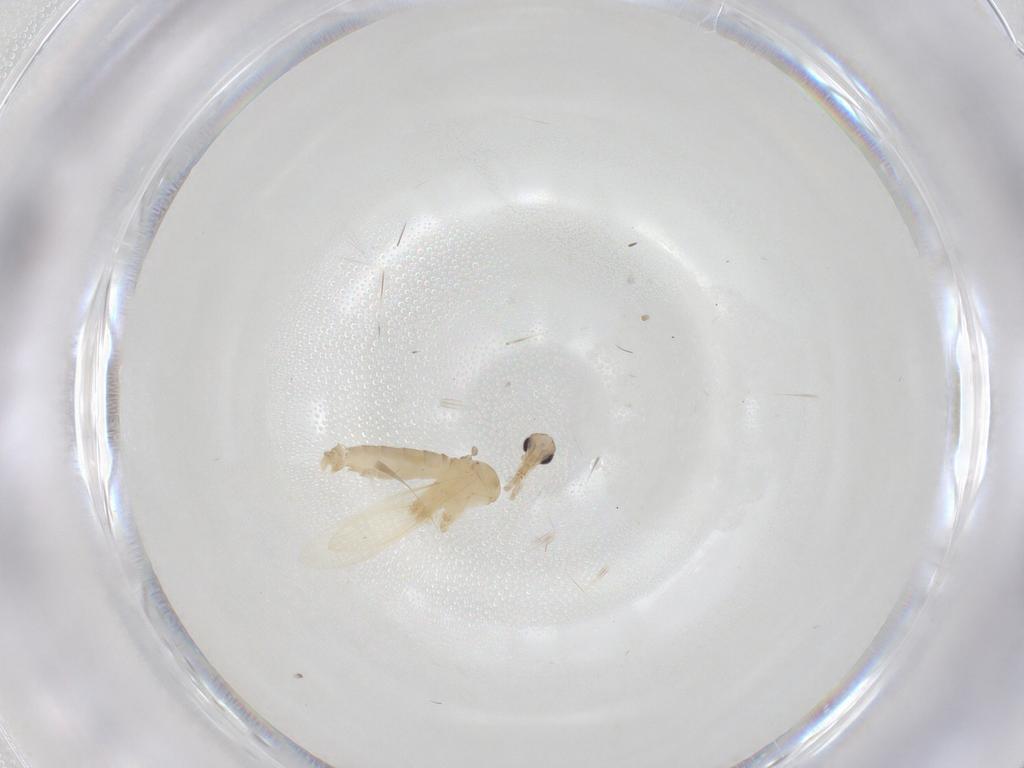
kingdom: Animalia
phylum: Arthropoda
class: Insecta
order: Diptera
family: Psychodidae
